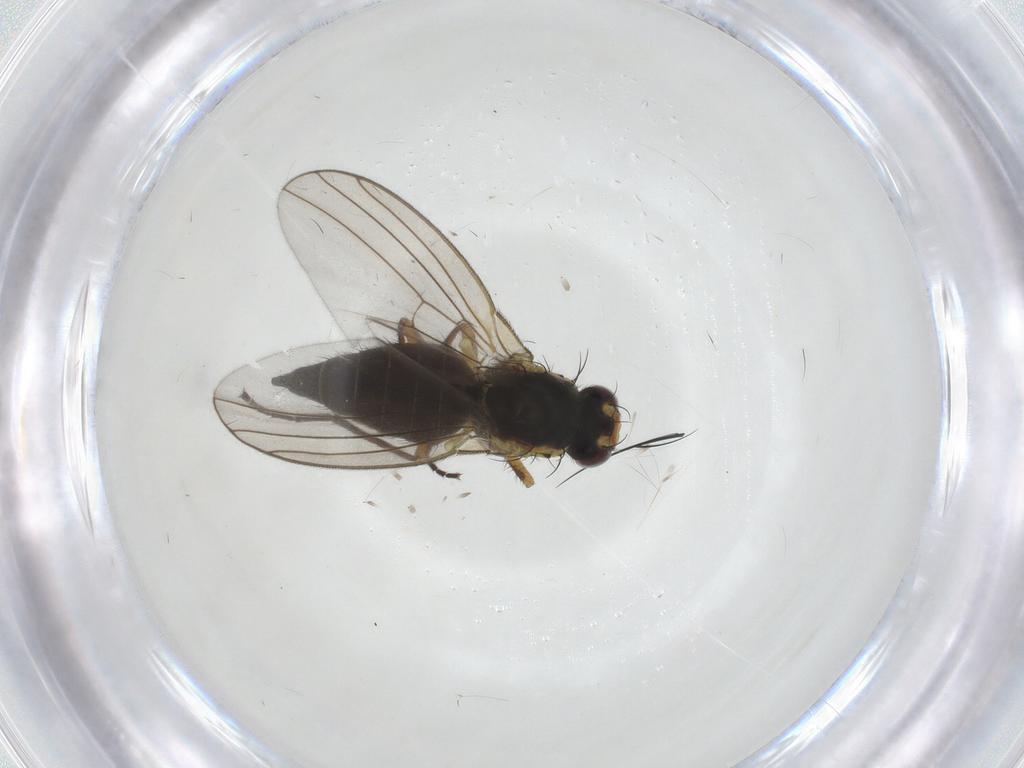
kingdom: Animalia
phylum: Arthropoda
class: Insecta
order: Diptera
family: Agromyzidae
